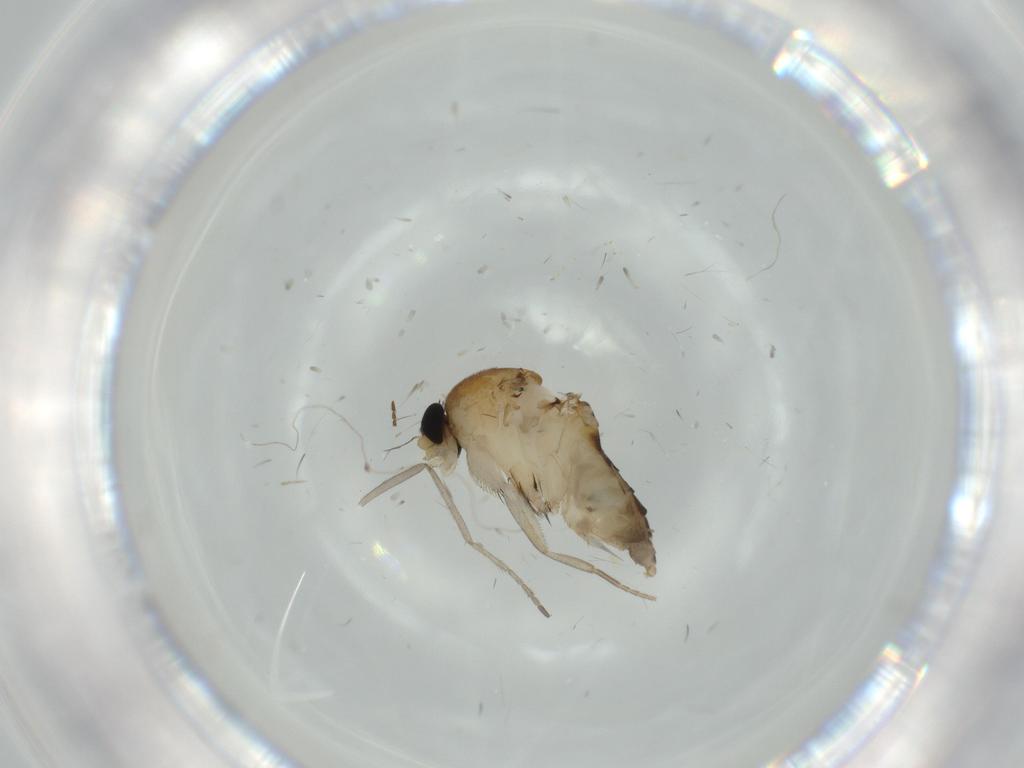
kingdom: Animalia
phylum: Arthropoda
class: Insecta
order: Diptera
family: Phoridae
